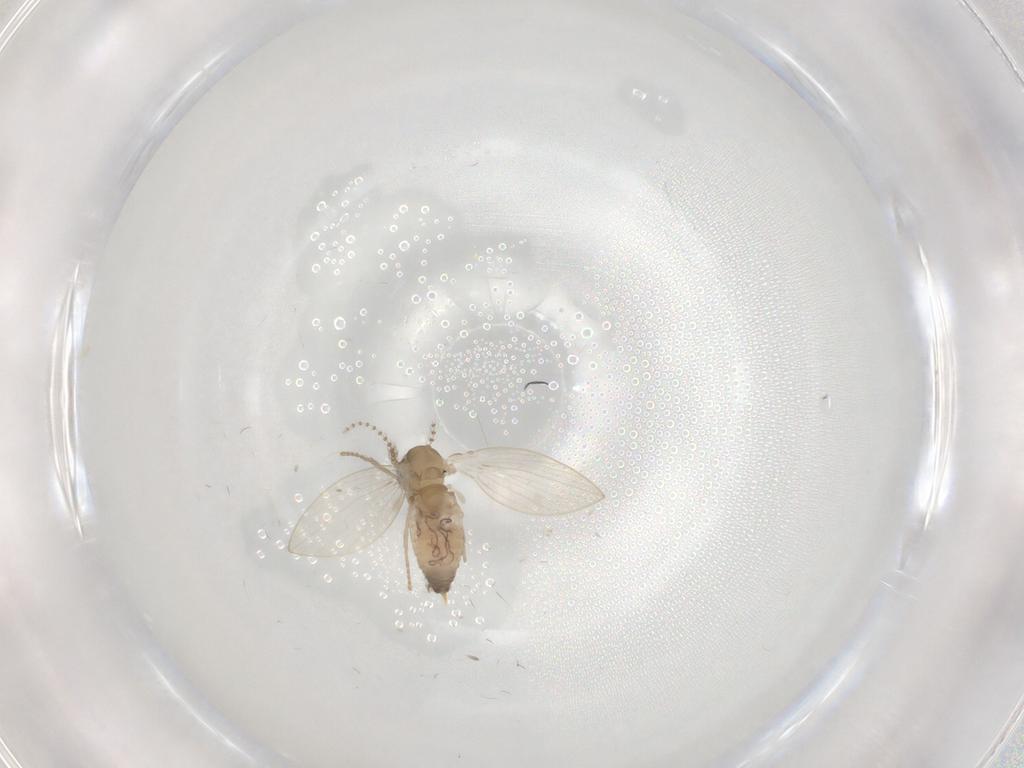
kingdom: Animalia
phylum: Arthropoda
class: Insecta
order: Diptera
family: Psychodidae
